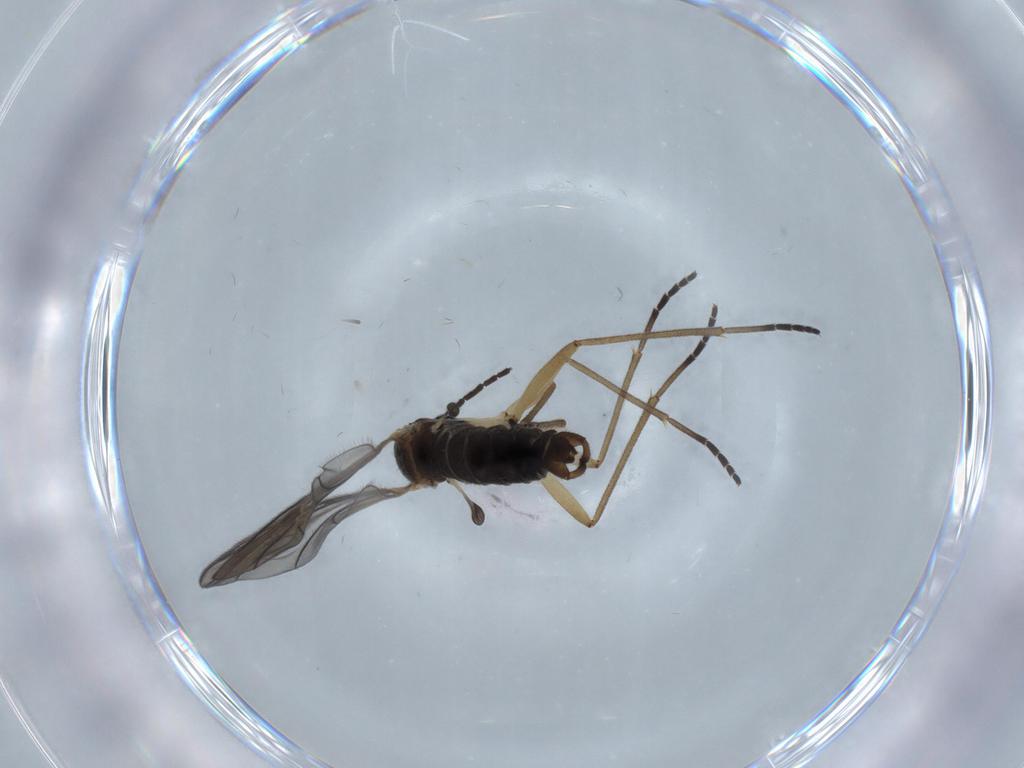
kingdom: Animalia
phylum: Arthropoda
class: Insecta
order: Diptera
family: Sciaridae
